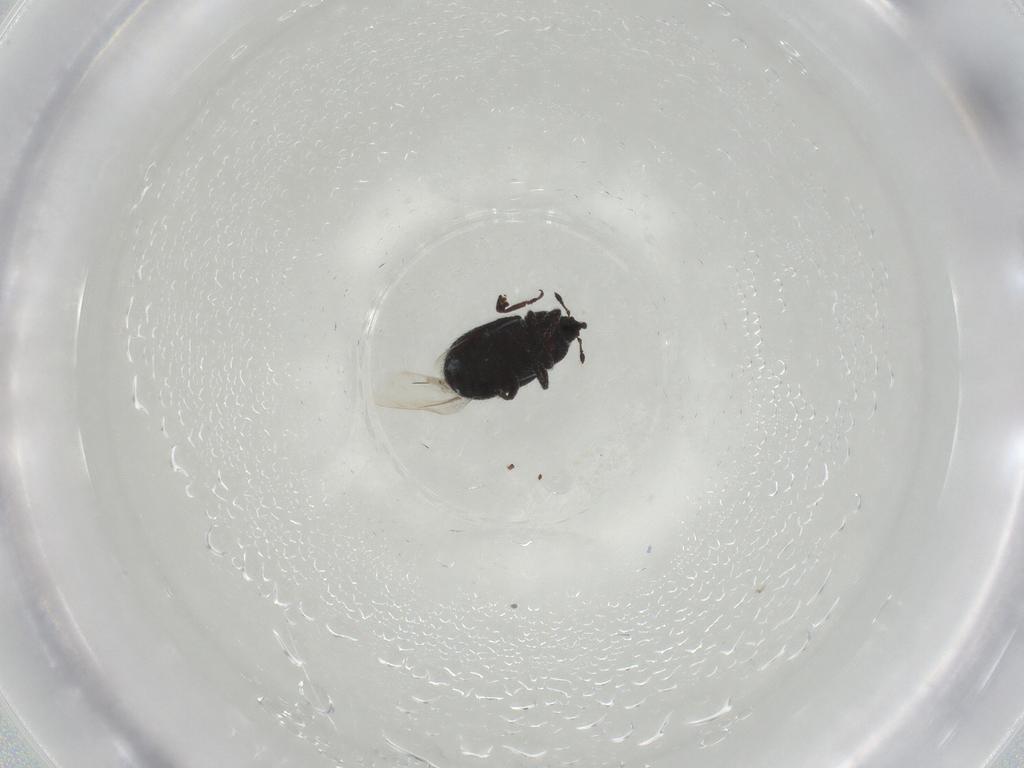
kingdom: Animalia
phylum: Arthropoda
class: Insecta
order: Coleoptera
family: Curculionidae
